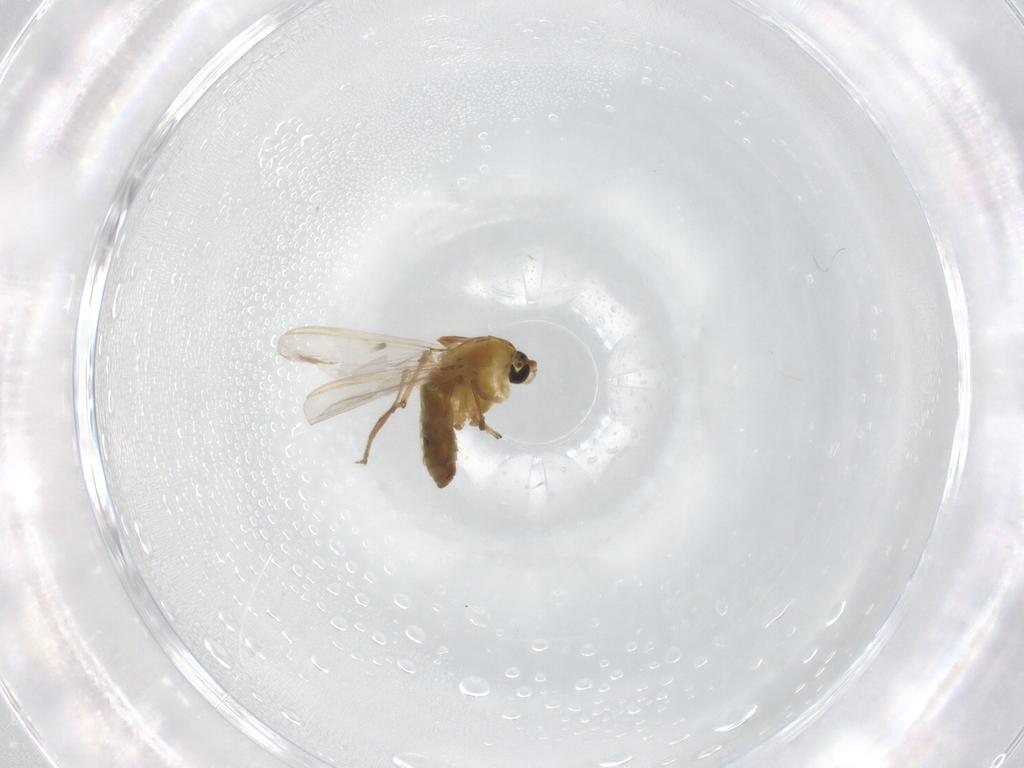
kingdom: Animalia
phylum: Arthropoda
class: Insecta
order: Diptera
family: Chironomidae
